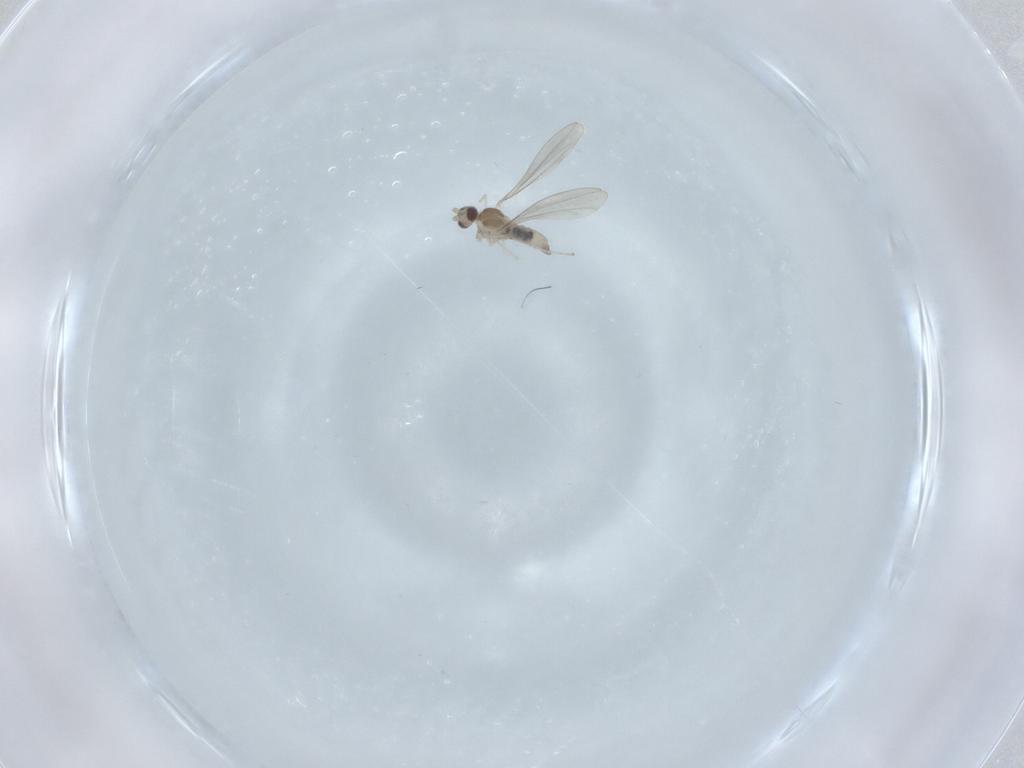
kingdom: Animalia
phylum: Arthropoda
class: Insecta
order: Diptera
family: Cecidomyiidae
